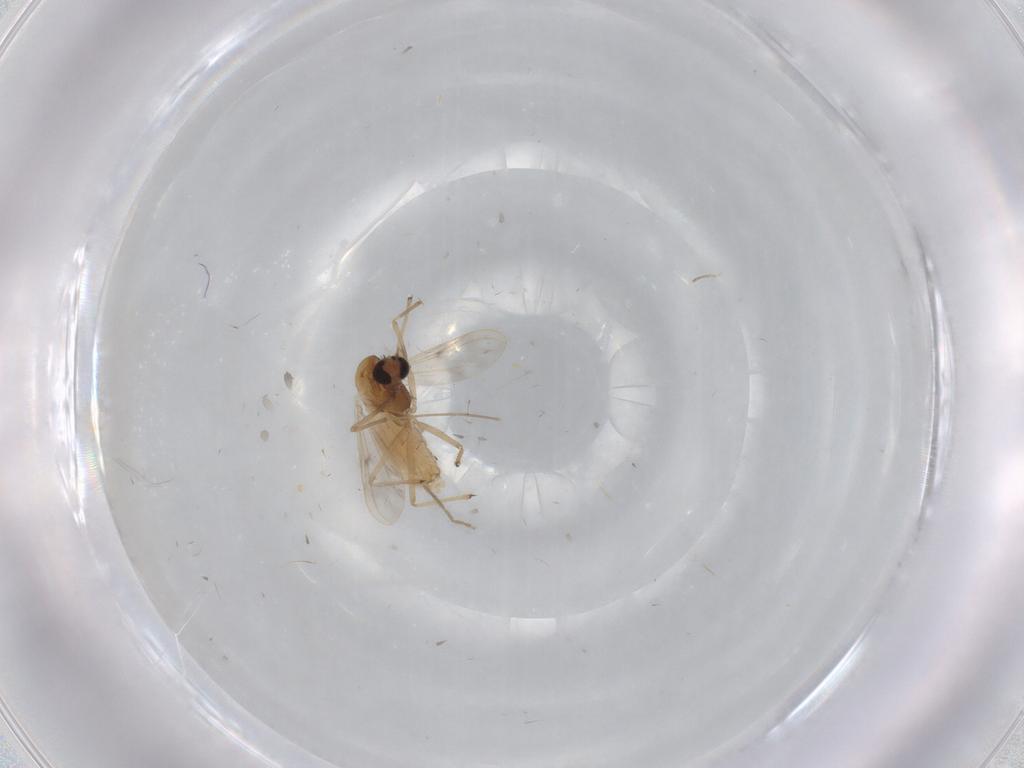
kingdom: Animalia
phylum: Arthropoda
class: Insecta
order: Diptera
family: Chironomidae
